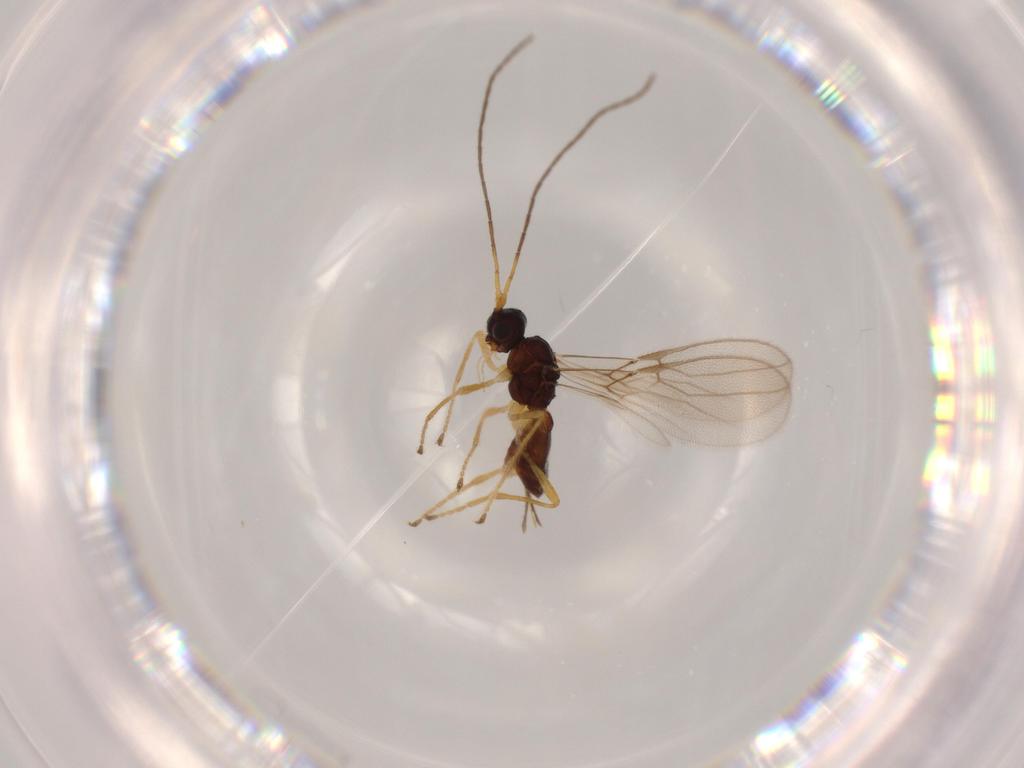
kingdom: Animalia
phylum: Arthropoda
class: Insecta
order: Hymenoptera
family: Braconidae
